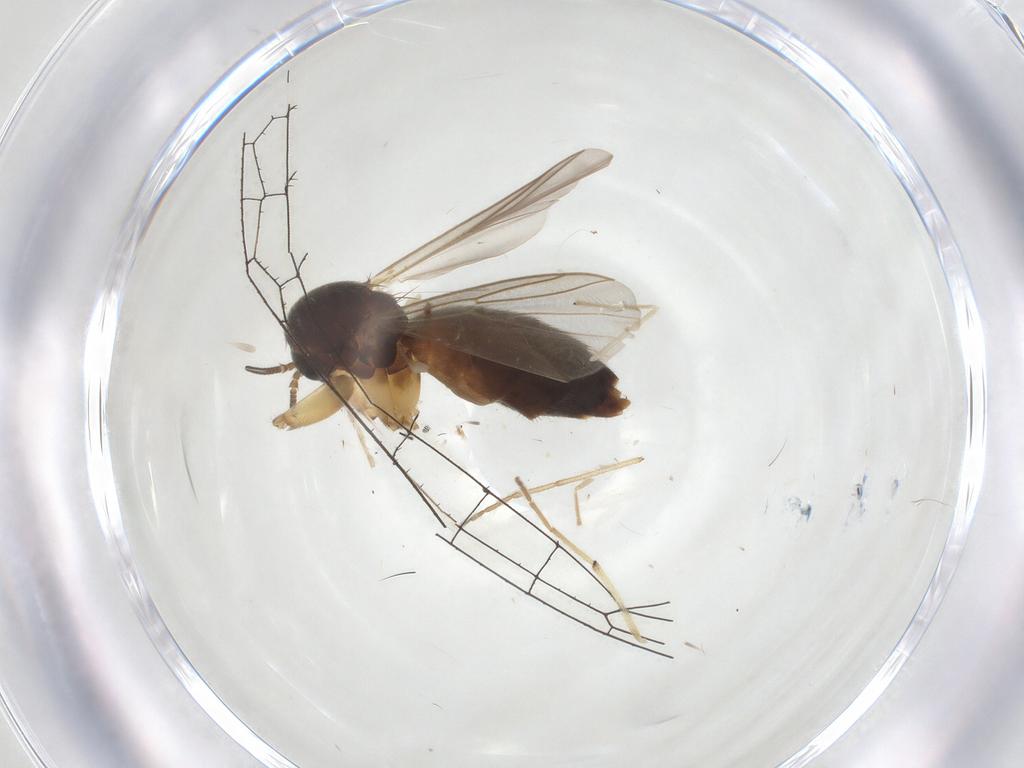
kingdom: Animalia
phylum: Arthropoda
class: Insecta
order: Diptera
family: Mycetophilidae
